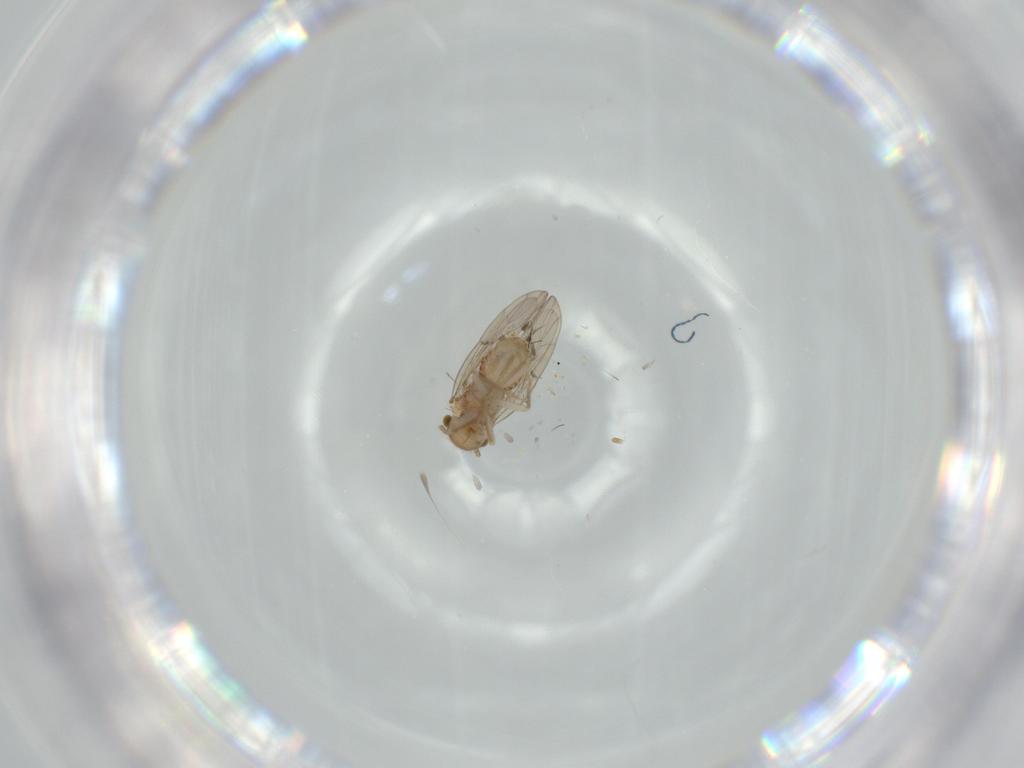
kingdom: Animalia
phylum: Arthropoda
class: Insecta
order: Psocodea
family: Ectopsocidae
